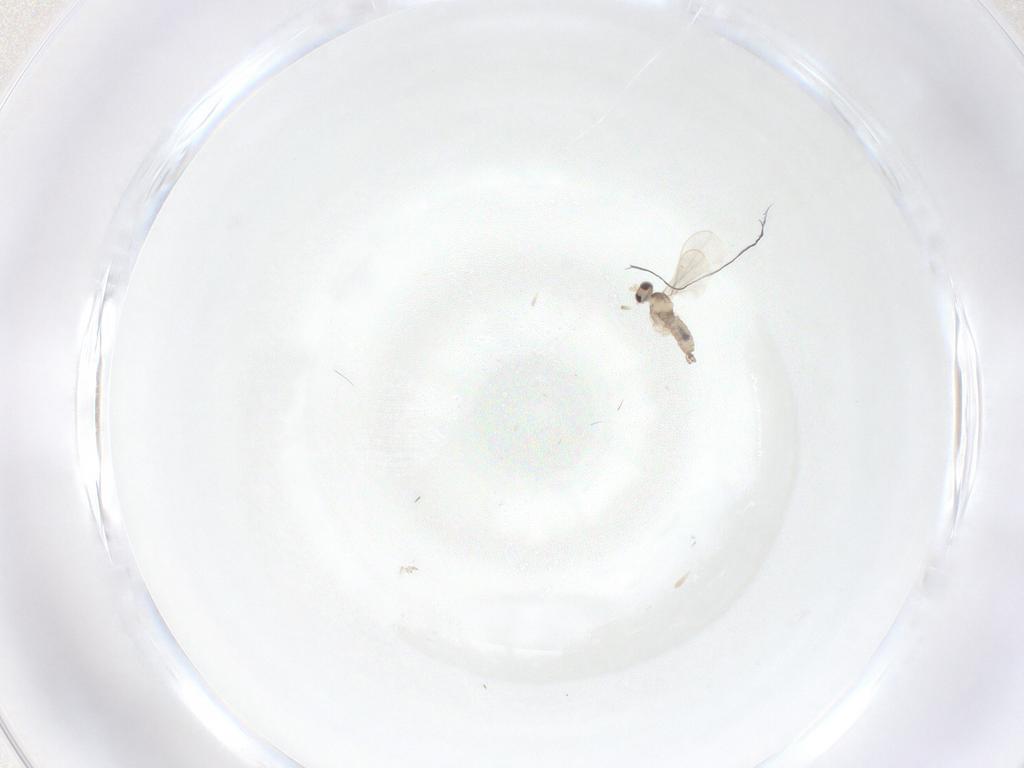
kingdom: Animalia
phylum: Arthropoda
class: Insecta
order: Diptera
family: Cecidomyiidae
